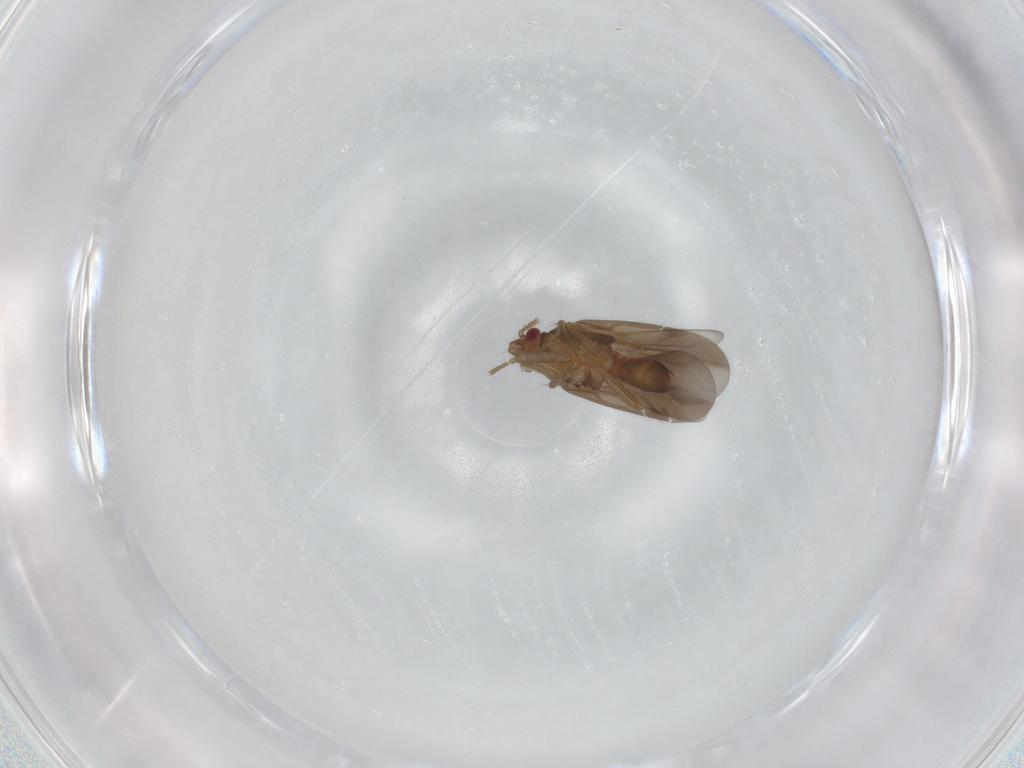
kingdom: Animalia
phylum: Arthropoda
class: Insecta
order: Hemiptera
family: Ceratocombidae
